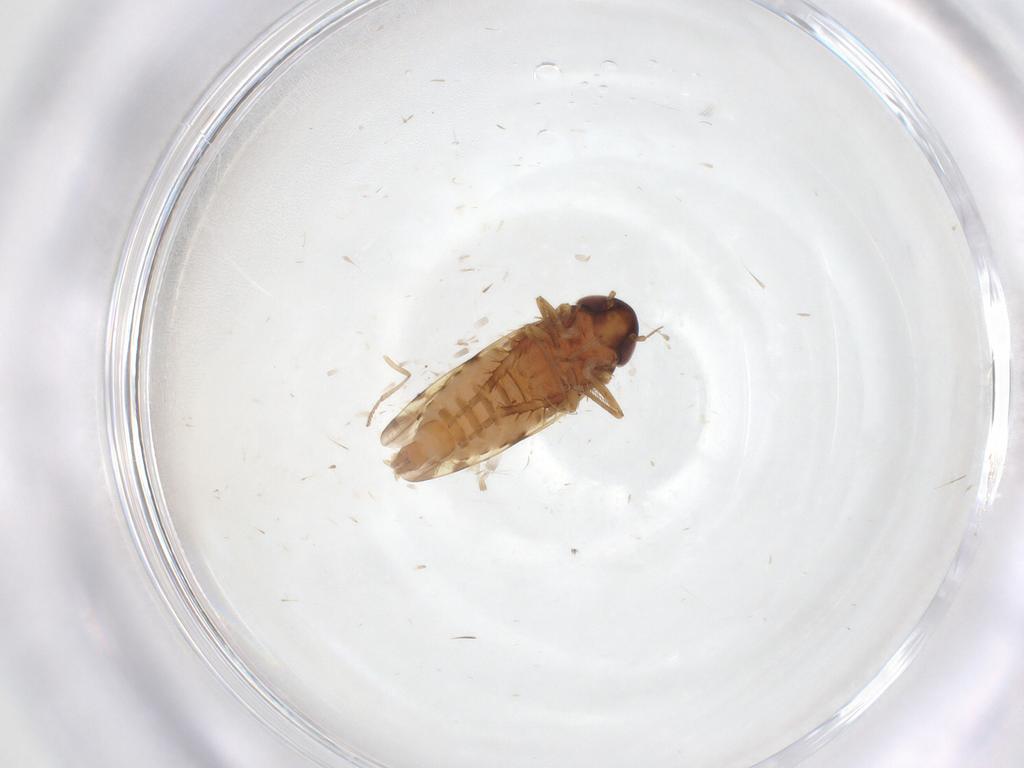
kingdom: Animalia
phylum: Arthropoda
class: Insecta
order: Hemiptera
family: Cicadellidae
